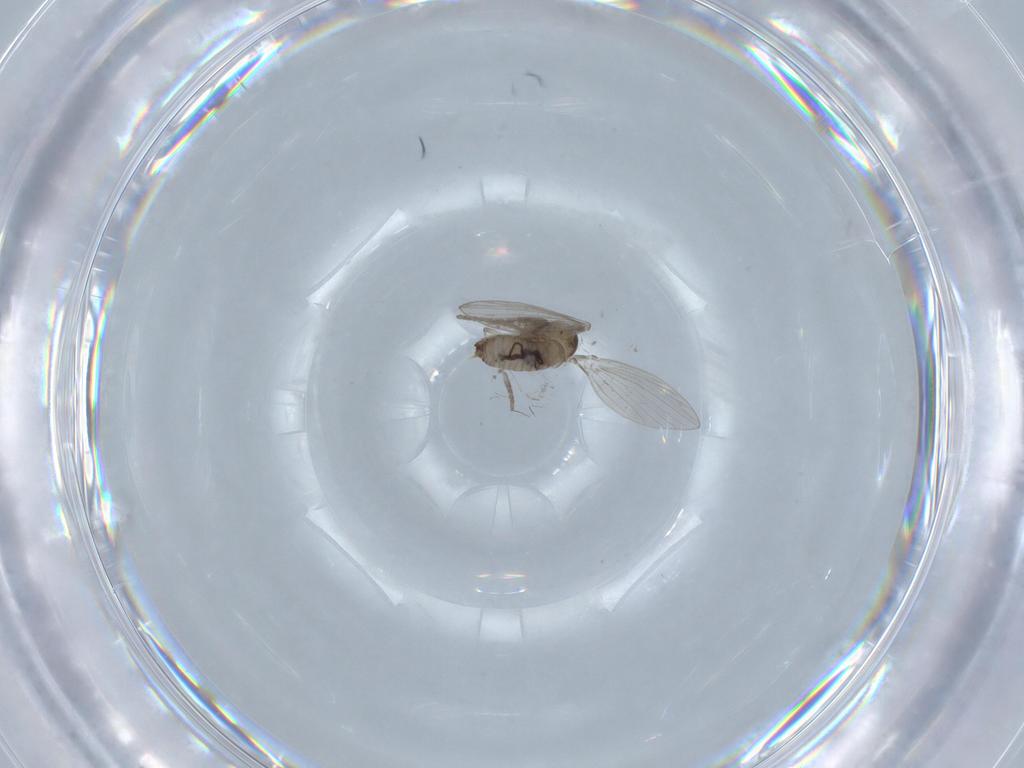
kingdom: Animalia
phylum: Arthropoda
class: Insecta
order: Diptera
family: Psychodidae
